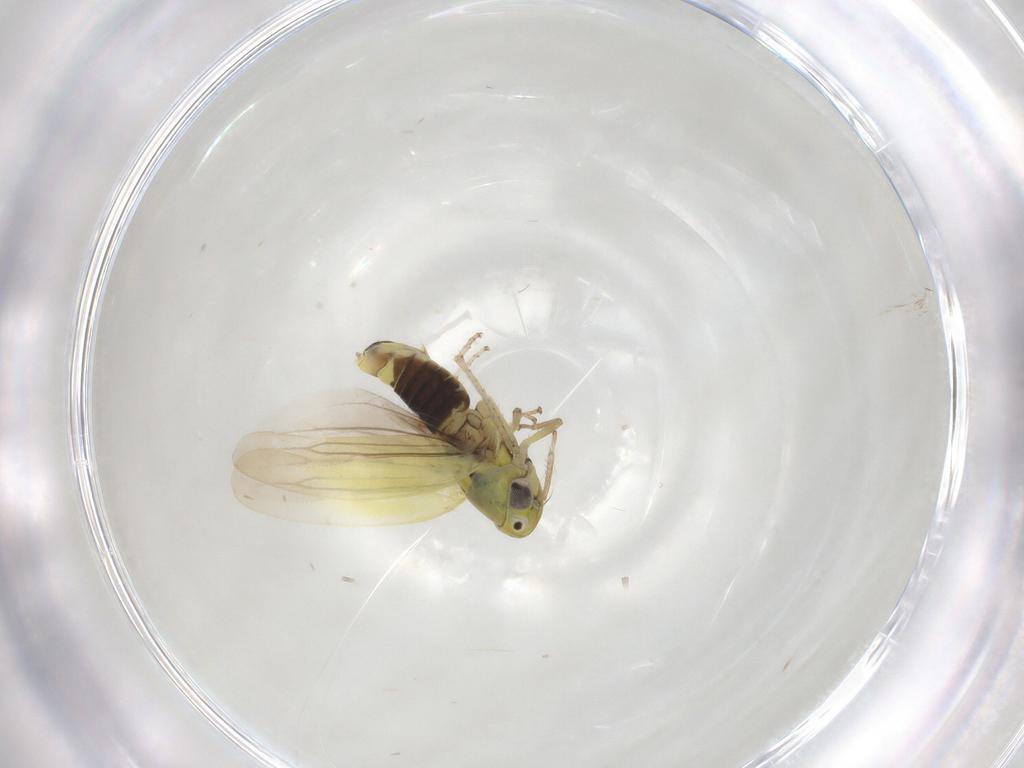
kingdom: Animalia
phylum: Arthropoda
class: Insecta
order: Hemiptera
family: Cicadellidae
